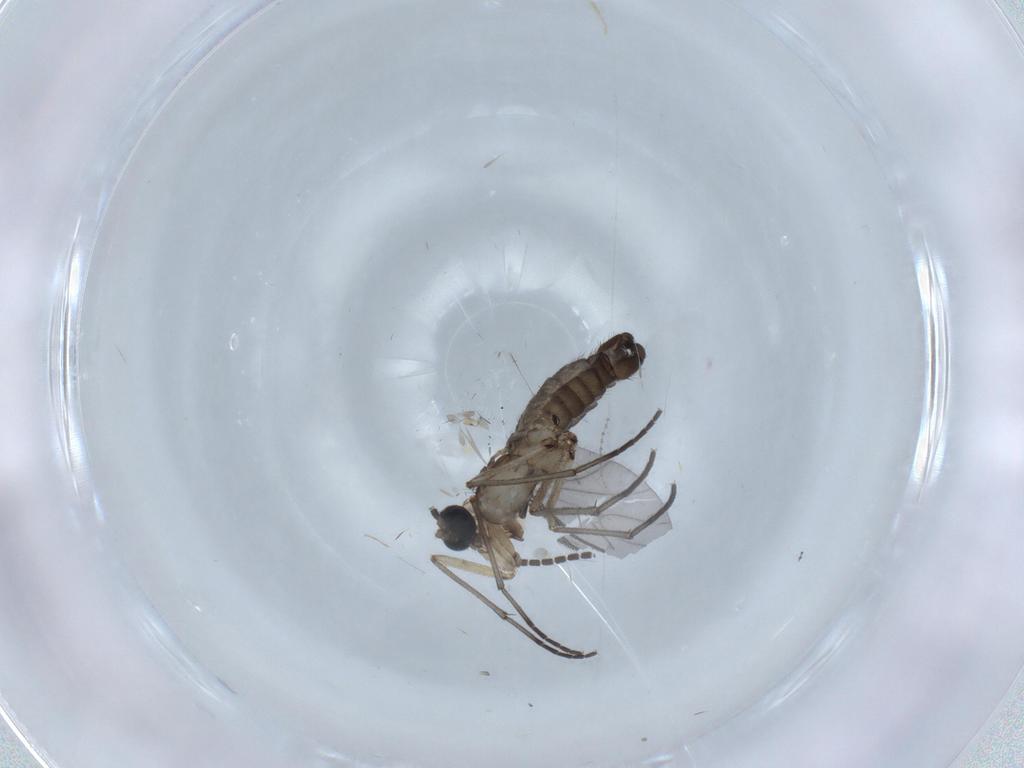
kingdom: Animalia
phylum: Arthropoda
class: Insecta
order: Diptera
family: Sciaridae
